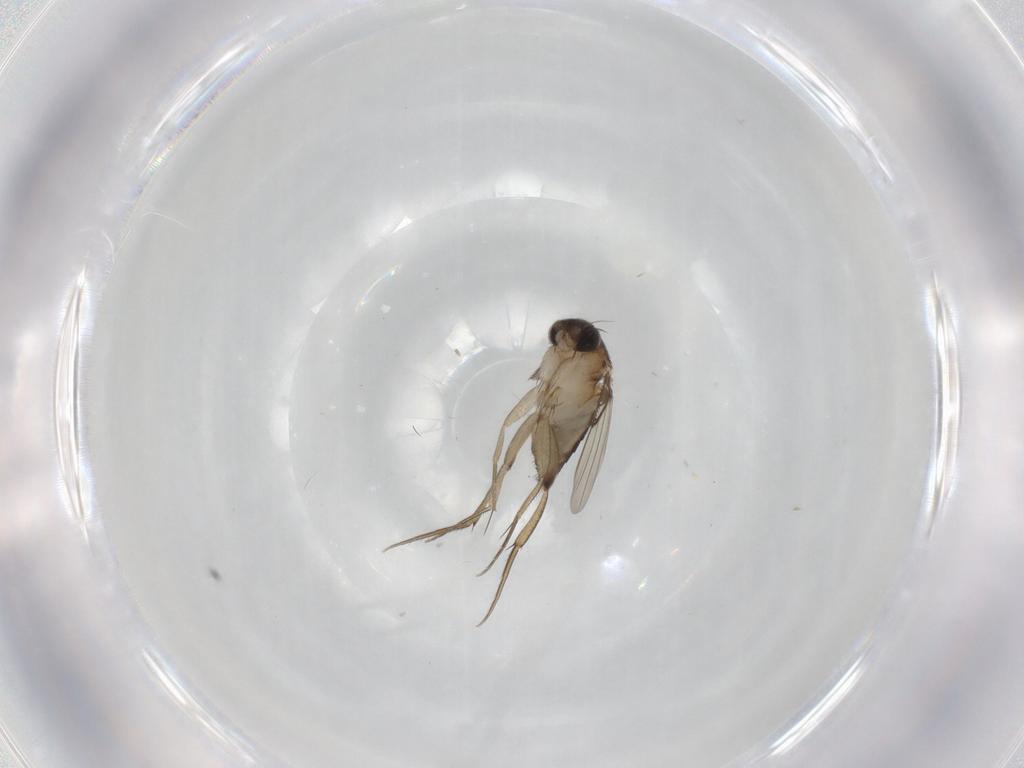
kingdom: Animalia
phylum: Arthropoda
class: Insecta
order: Diptera
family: Phoridae
